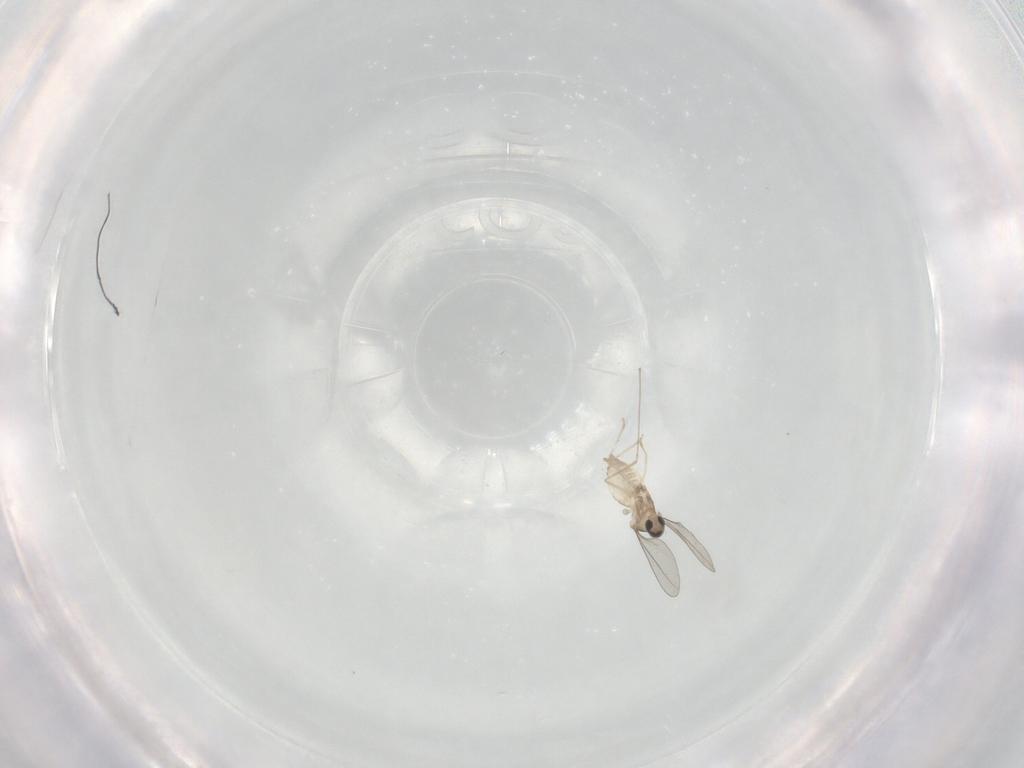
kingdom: Animalia
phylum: Arthropoda
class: Insecta
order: Diptera
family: Cecidomyiidae
